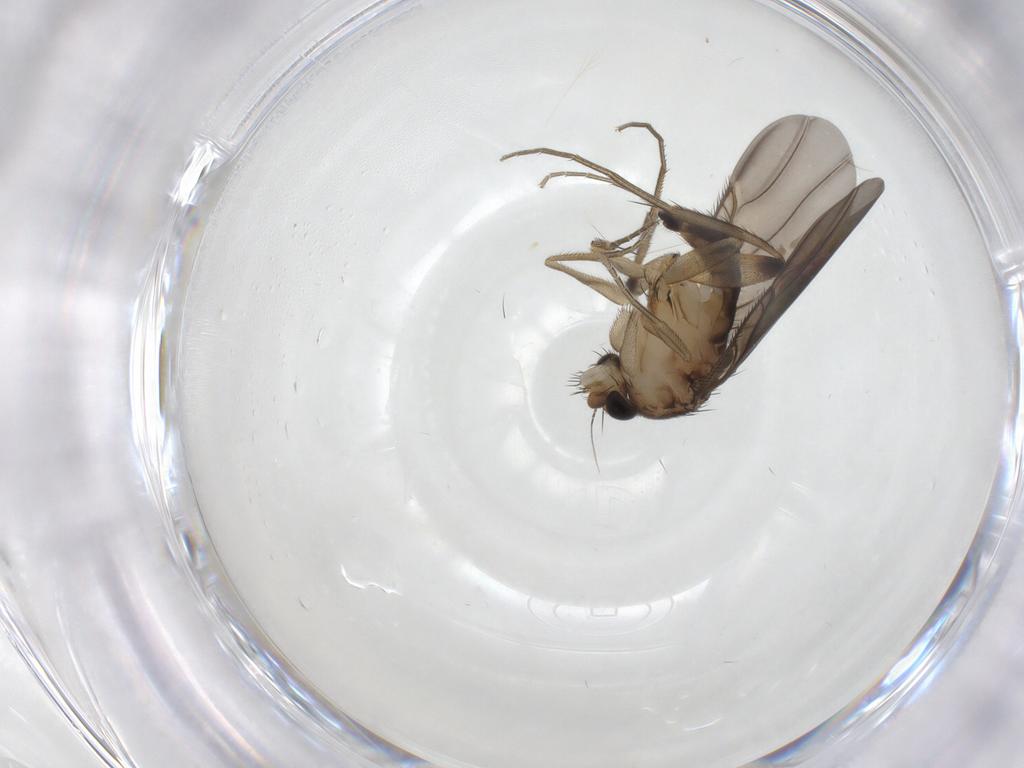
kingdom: Animalia
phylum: Arthropoda
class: Insecta
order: Diptera
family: Phoridae
